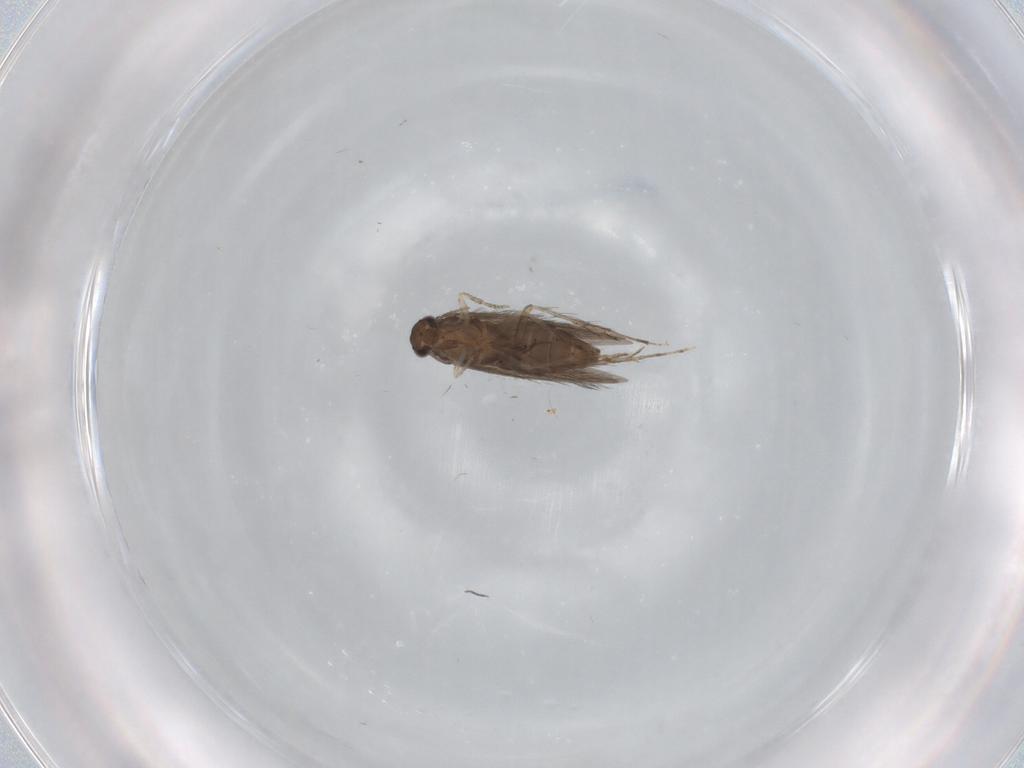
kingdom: Animalia
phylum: Arthropoda
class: Insecta
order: Trichoptera
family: Hydroptilidae
